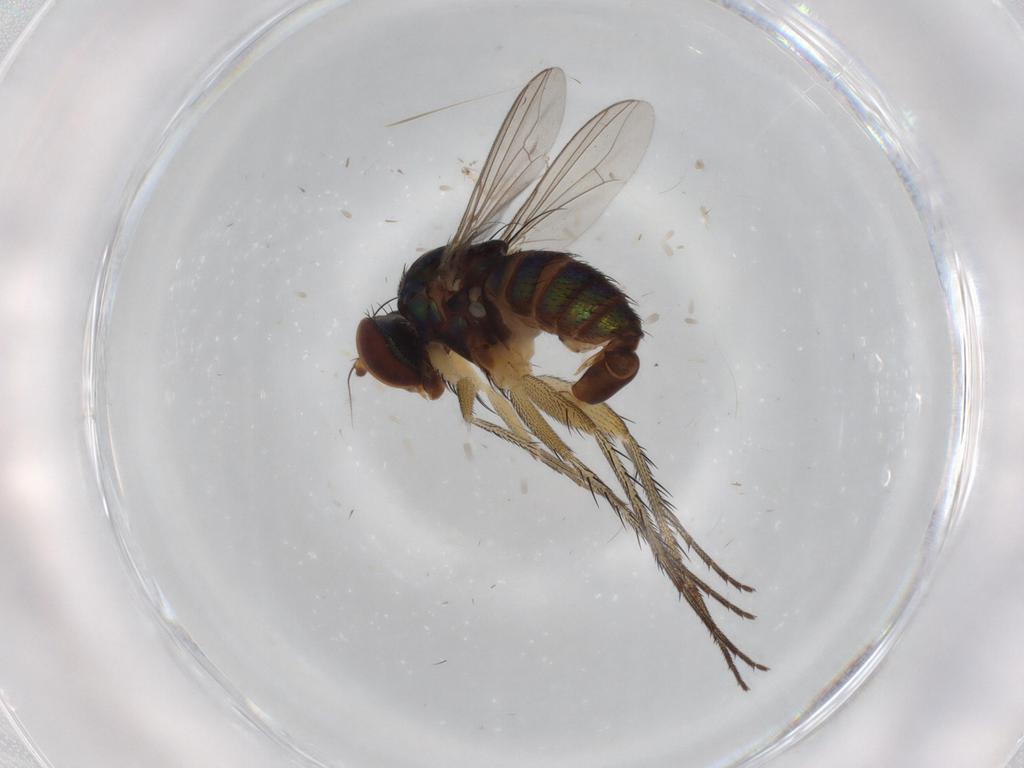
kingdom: Animalia
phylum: Arthropoda
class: Insecta
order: Diptera
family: Dolichopodidae
